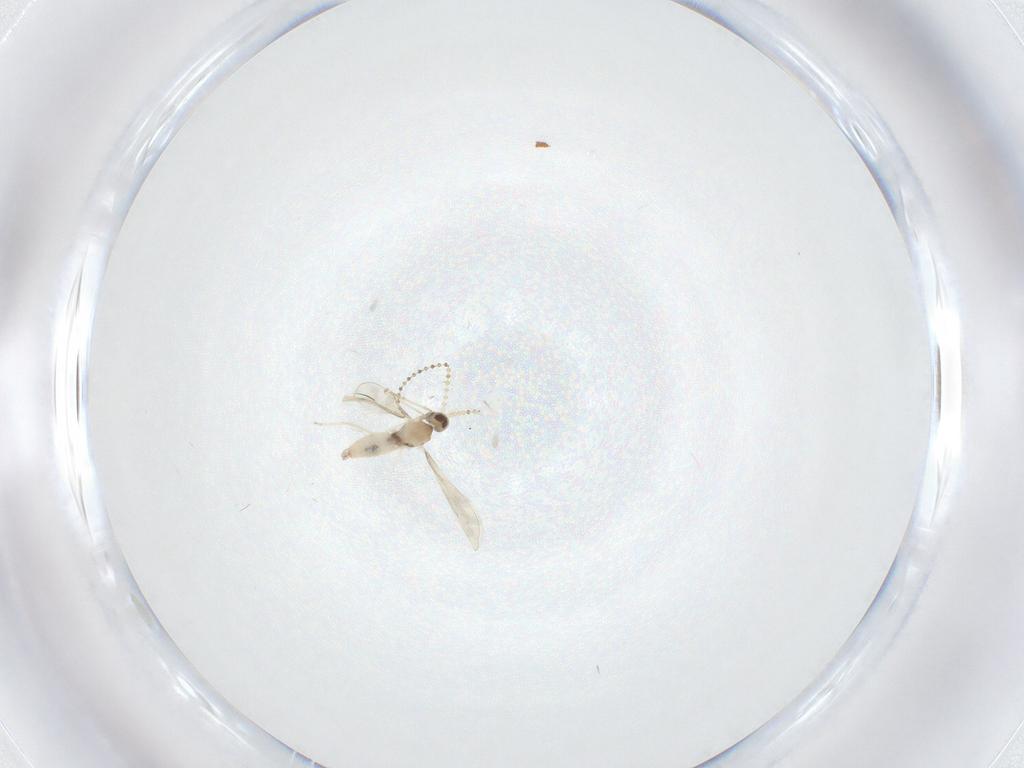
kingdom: Animalia
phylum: Arthropoda
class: Insecta
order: Diptera
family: Cecidomyiidae
